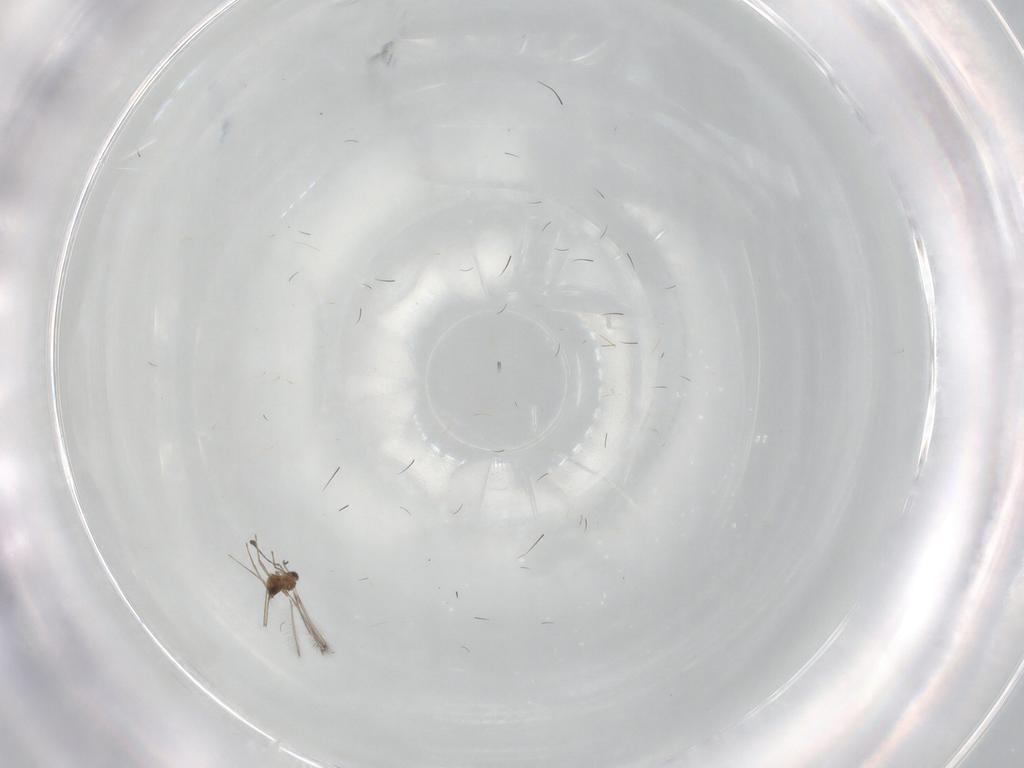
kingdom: Animalia
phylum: Arthropoda
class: Insecta
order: Hymenoptera
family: Mymaridae
